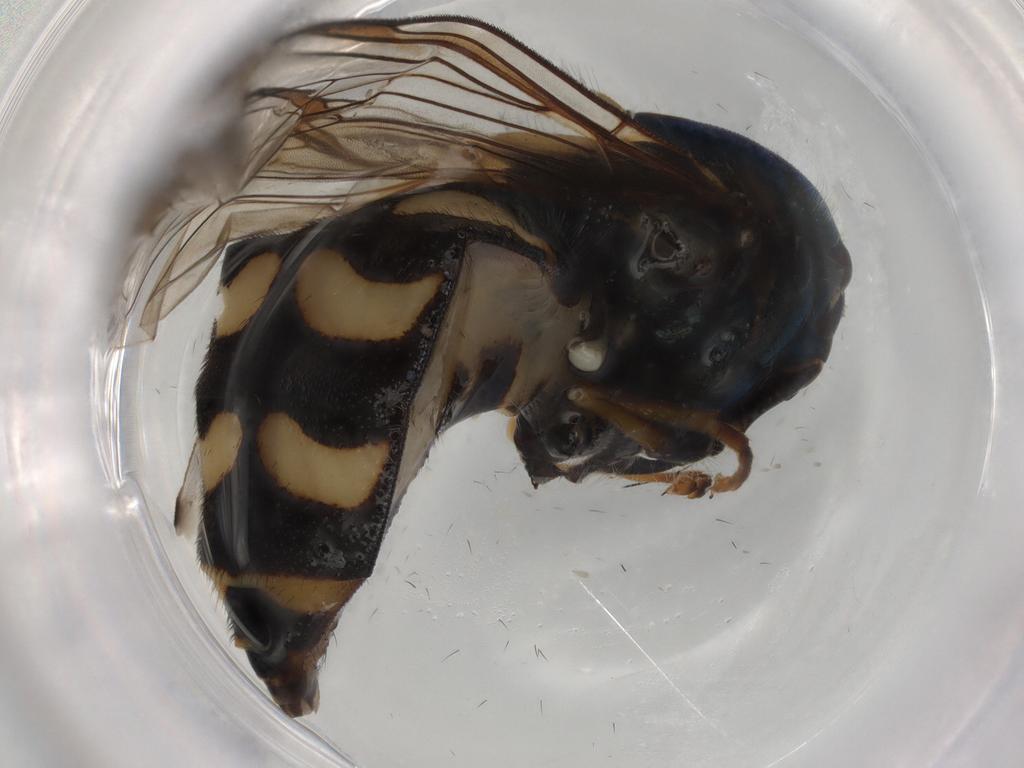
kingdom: Animalia
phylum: Arthropoda
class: Insecta
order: Diptera
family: Syrphidae
